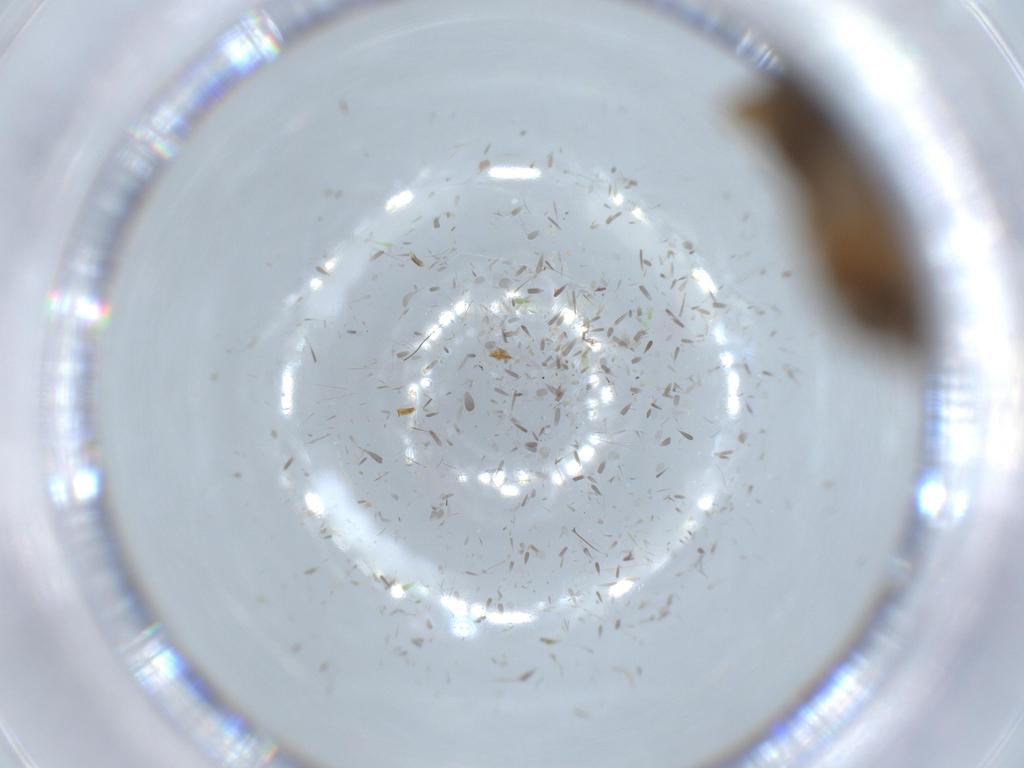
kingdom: Animalia
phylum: Arthropoda
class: Insecta
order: Lepidoptera
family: Tineidae
